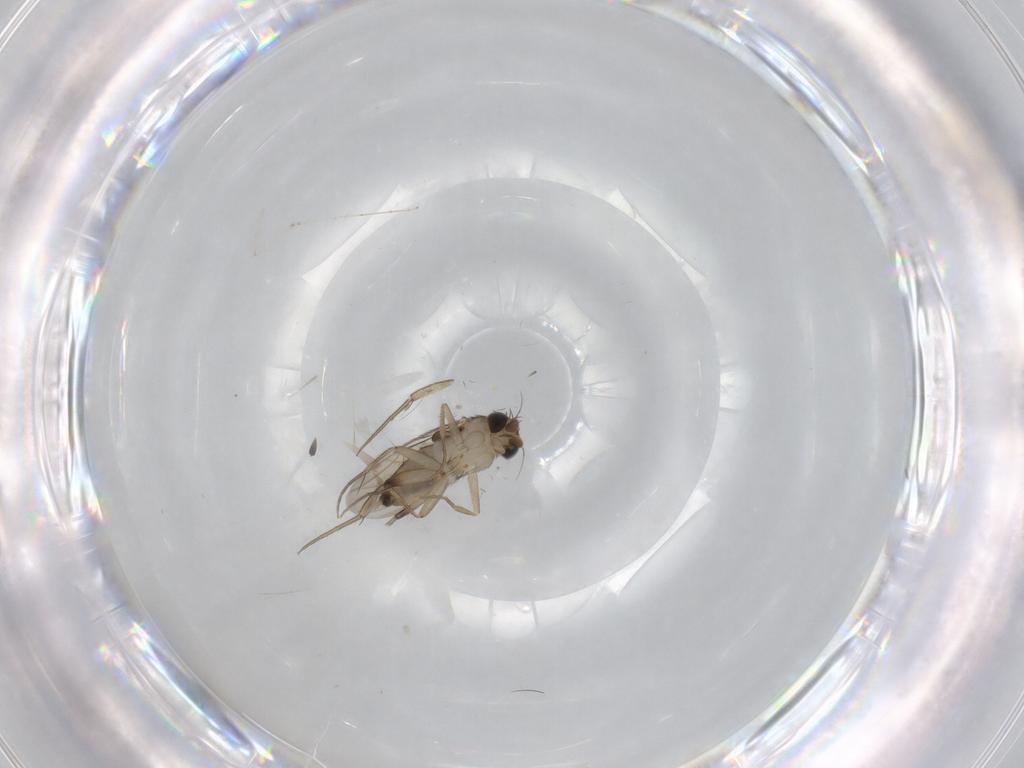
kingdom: Animalia
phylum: Arthropoda
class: Insecta
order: Diptera
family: Phoridae
